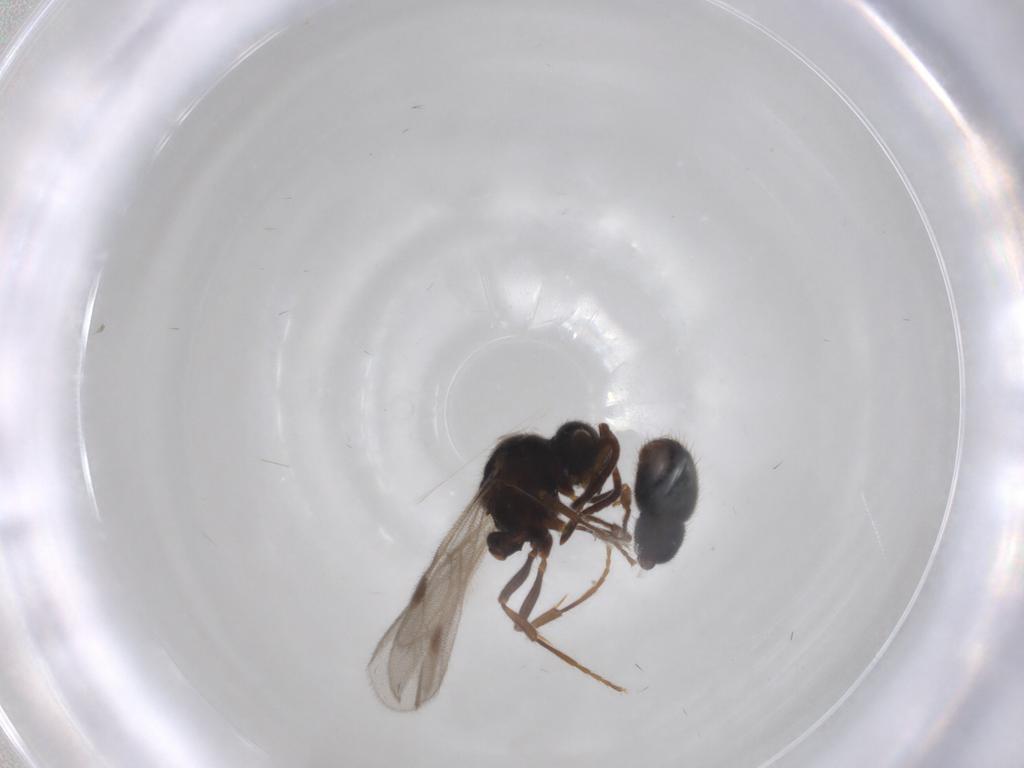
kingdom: Animalia
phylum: Arthropoda
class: Insecta
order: Hymenoptera
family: Formicidae
